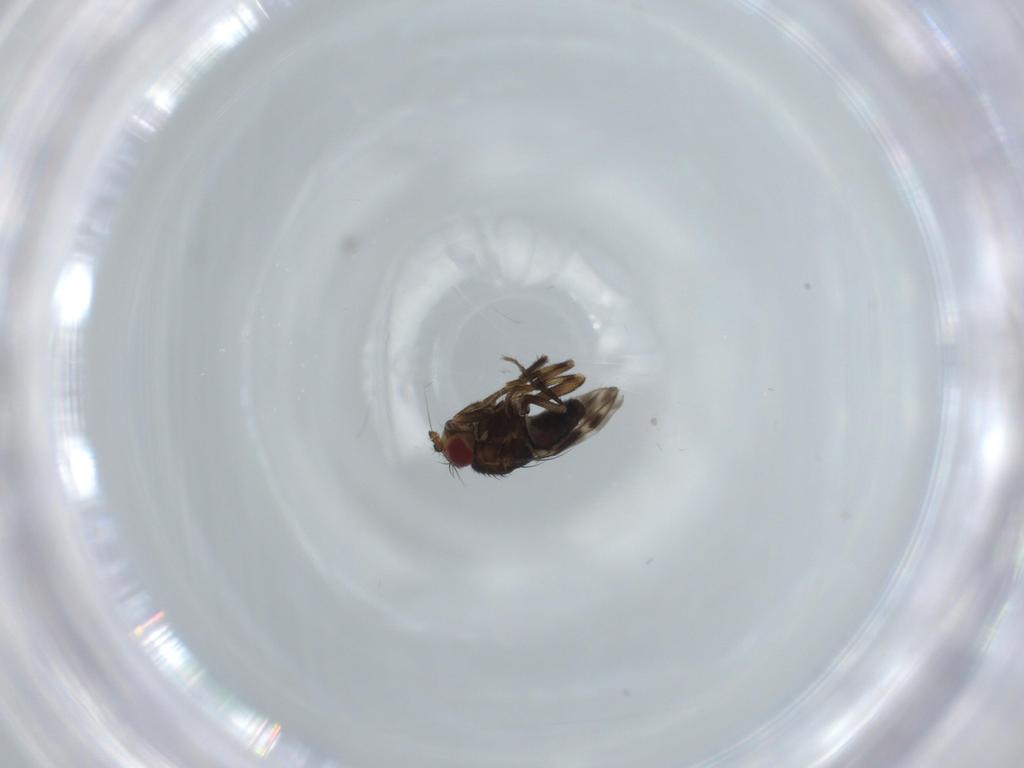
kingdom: Animalia
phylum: Arthropoda
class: Insecta
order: Diptera
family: Sphaeroceridae
